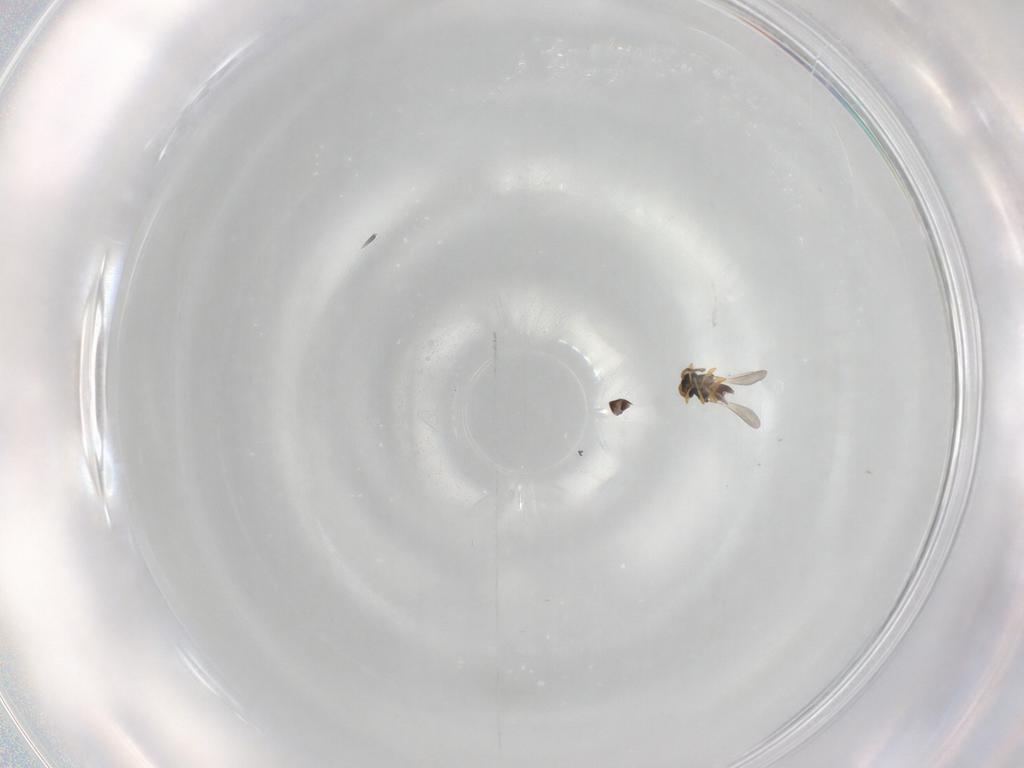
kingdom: Animalia
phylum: Arthropoda
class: Insecta
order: Hymenoptera
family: Platygastridae
